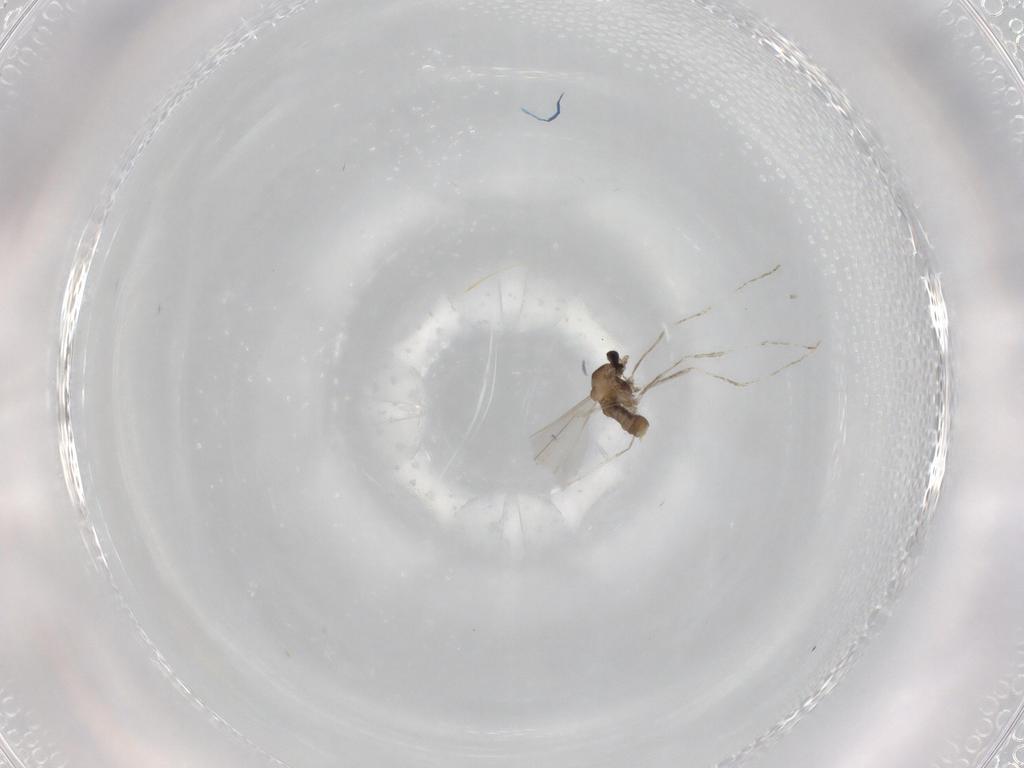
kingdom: Animalia
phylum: Arthropoda
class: Insecta
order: Diptera
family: Cecidomyiidae
